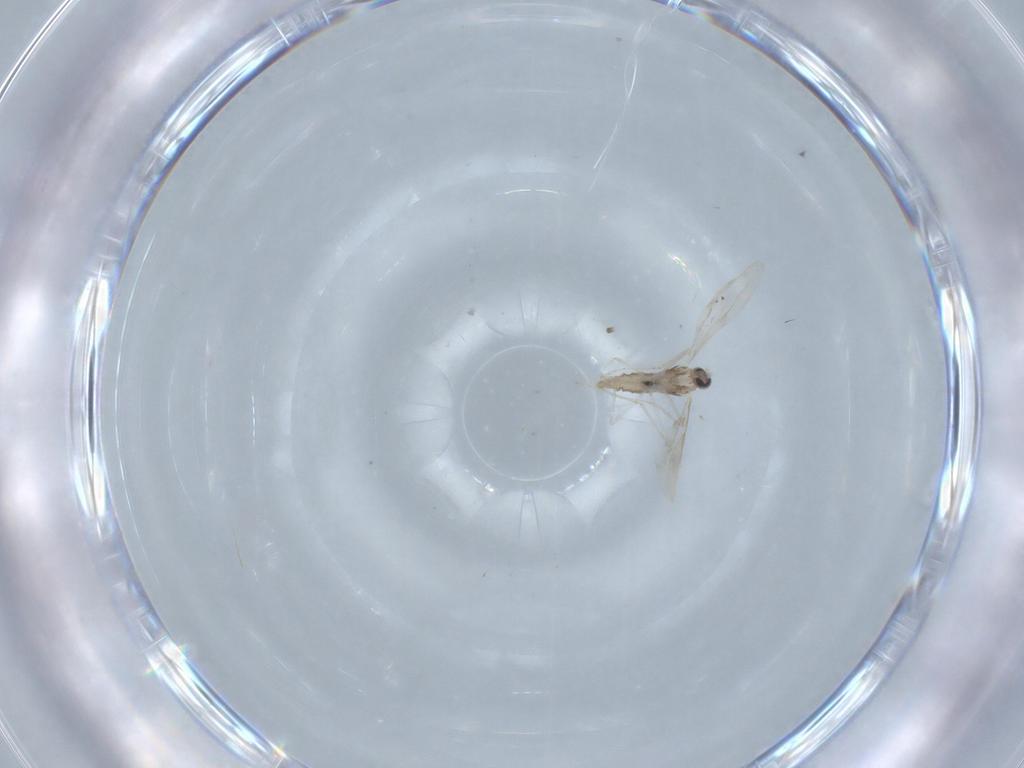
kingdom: Animalia
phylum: Arthropoda
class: Insecta
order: Diptera
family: Cecidomyiidae
